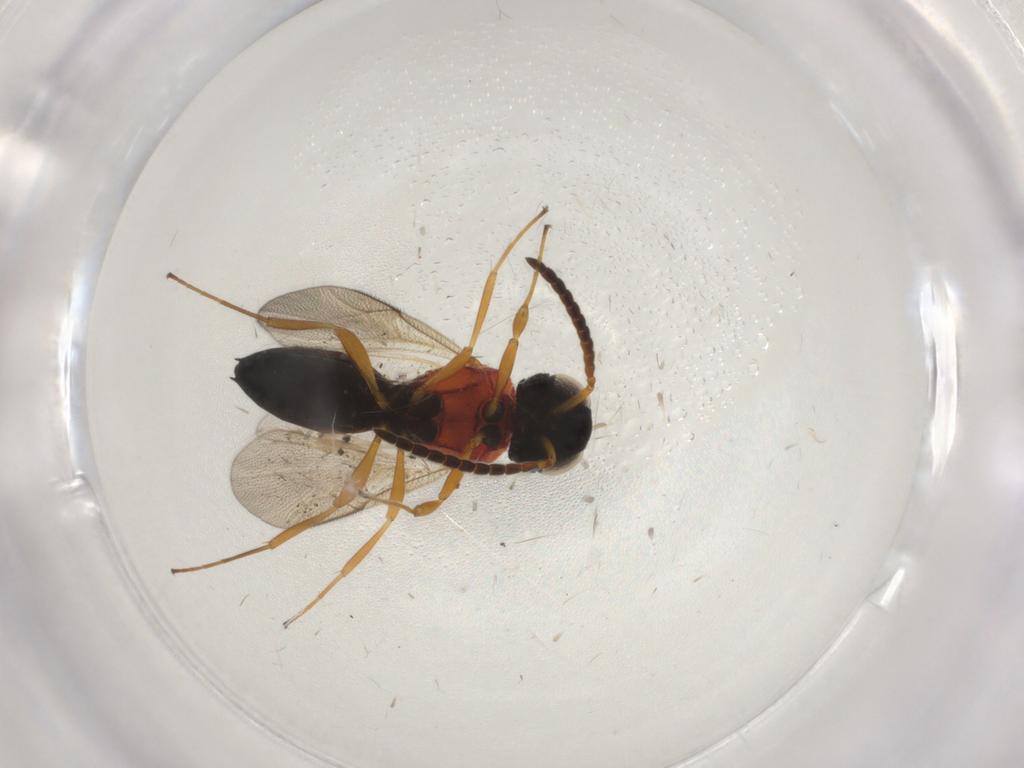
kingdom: Animalia
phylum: Arthropoda
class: Insecta
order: Hymenoptera
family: Scelionidae
